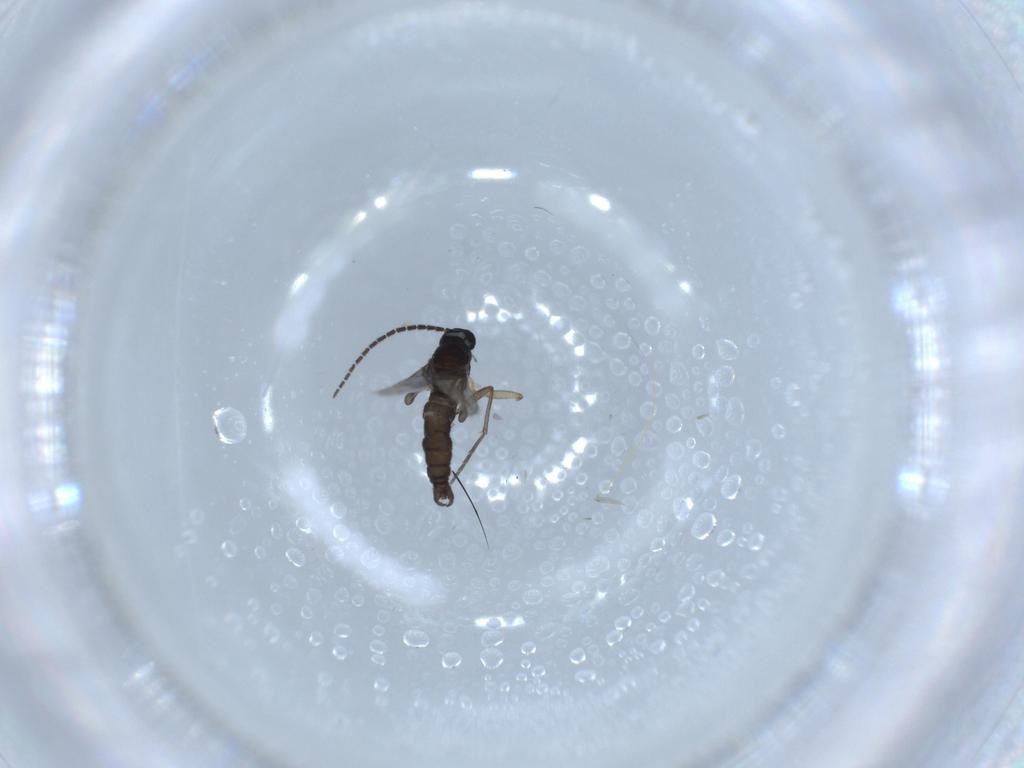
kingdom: Animalia
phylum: Arthropoda
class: Insecta
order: Diptera
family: Sciaridae
